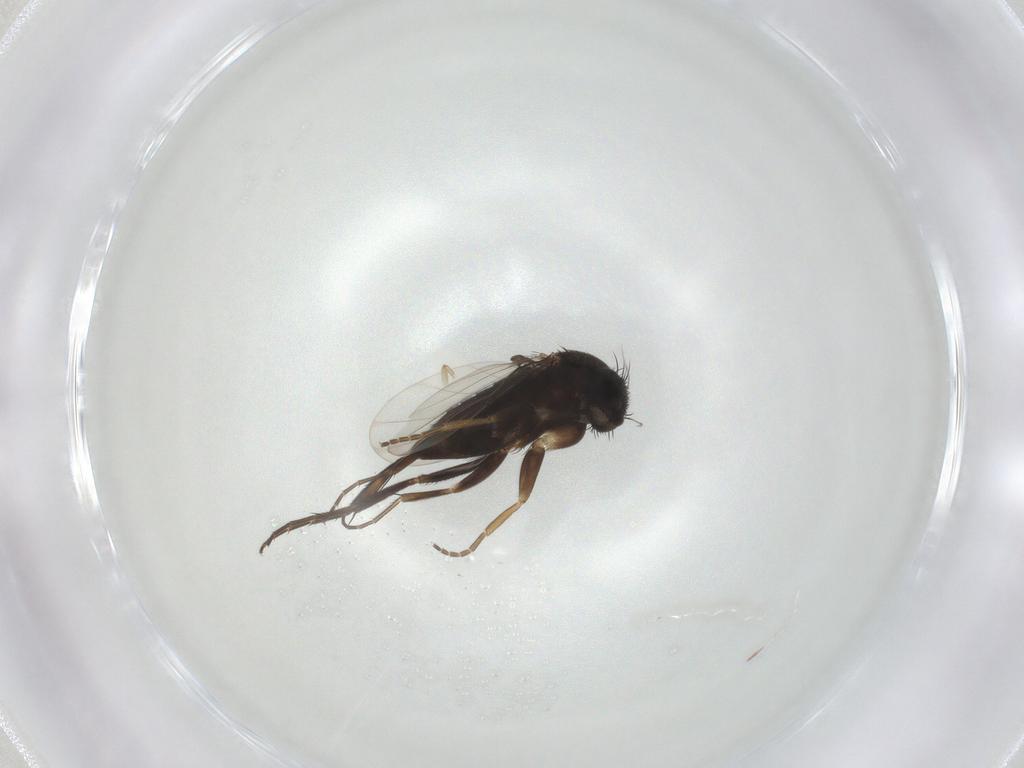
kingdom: Animalia
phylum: Arthropoda
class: Insecta
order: Diptera
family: Phoridae
